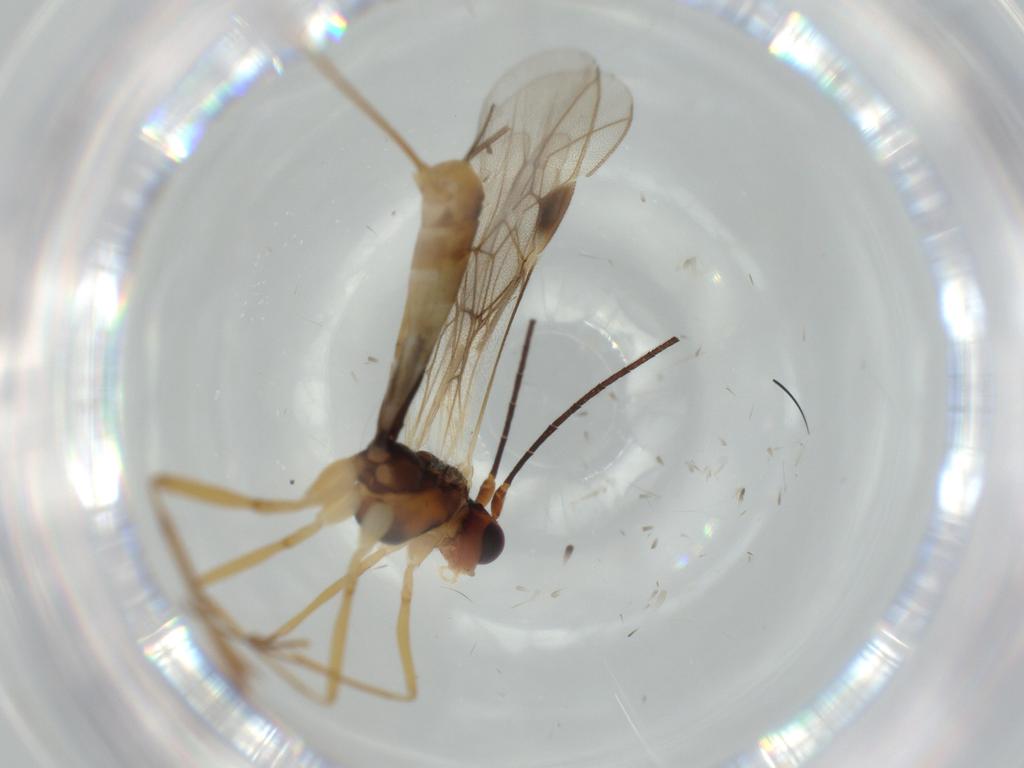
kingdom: Animalia
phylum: Arthropoda
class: Insecta
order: Hymenoptera
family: Braconidae
